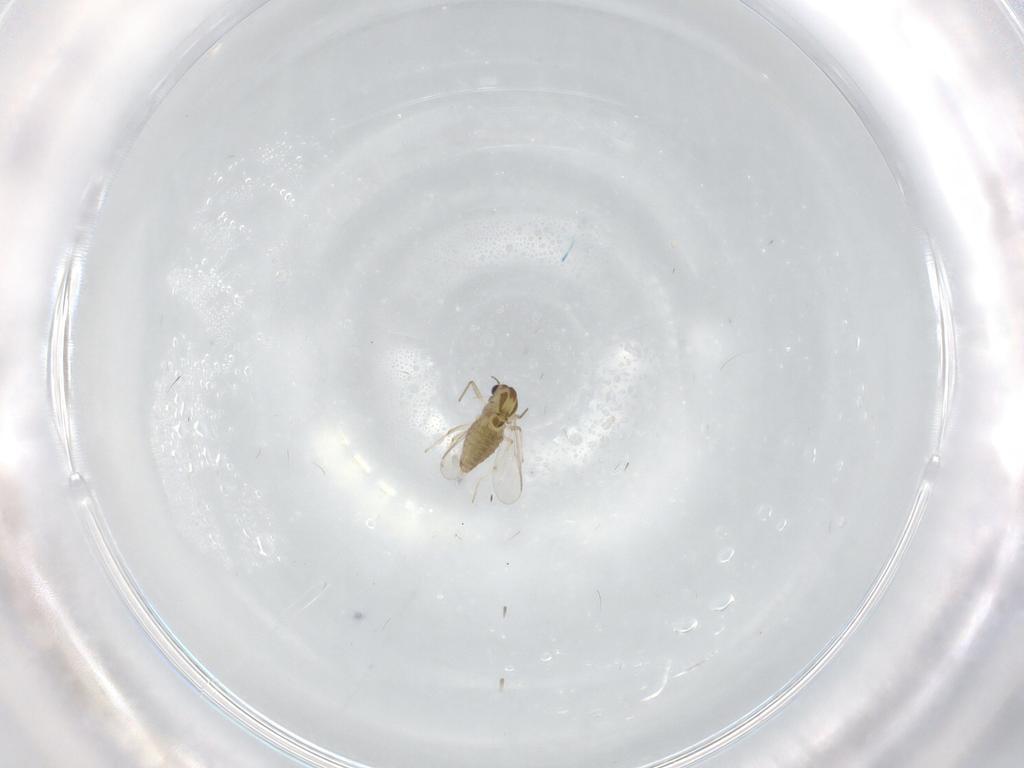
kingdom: Animalia
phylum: Arthropoda
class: Insecta
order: Diptera
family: Chironomidae
